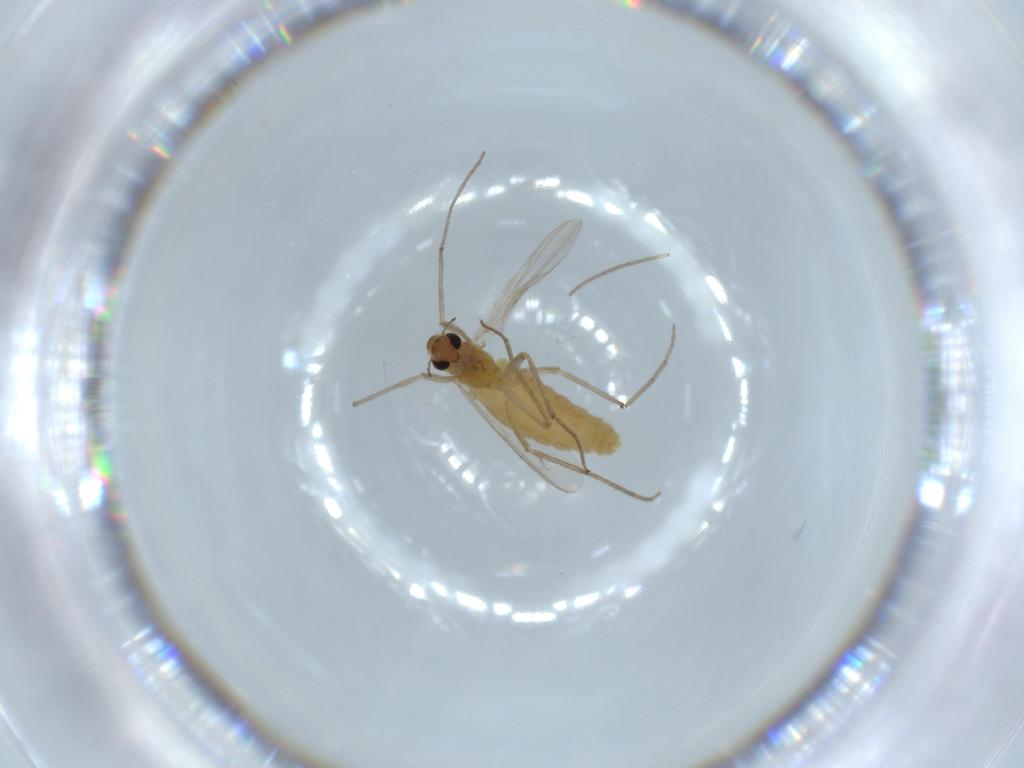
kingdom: Animalia
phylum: Arthropoda
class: Insecta
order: Diptera
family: Chironomidae
